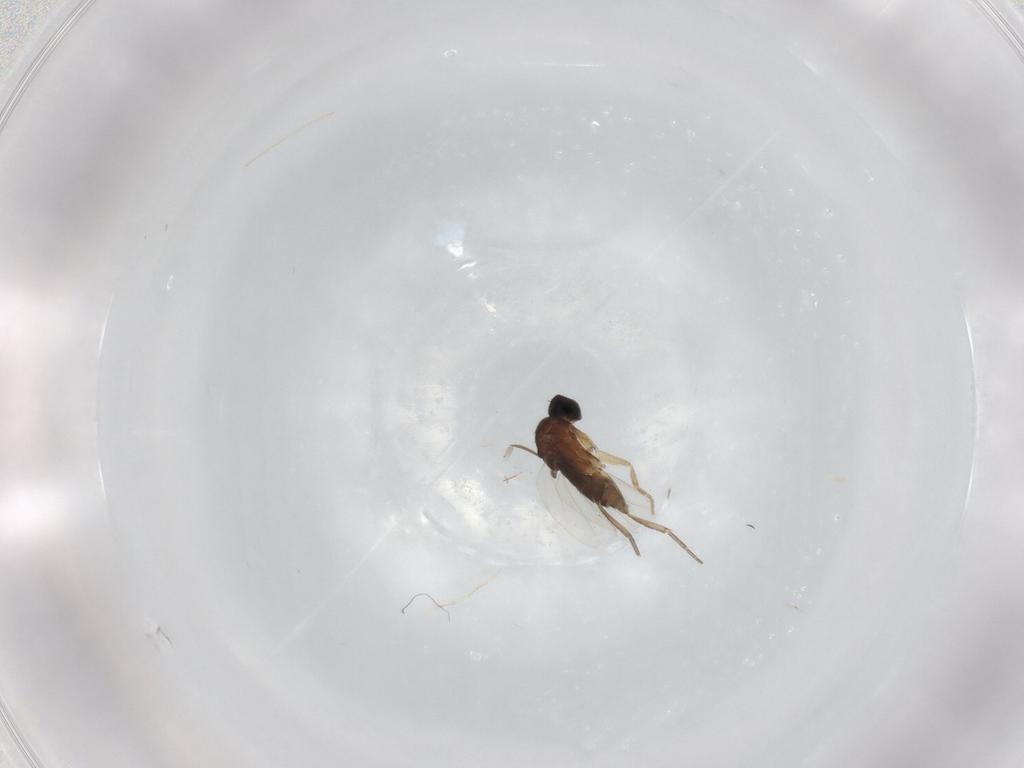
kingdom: Animalia
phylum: Arthropoda
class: Insecta
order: Diptera
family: Phoridae
